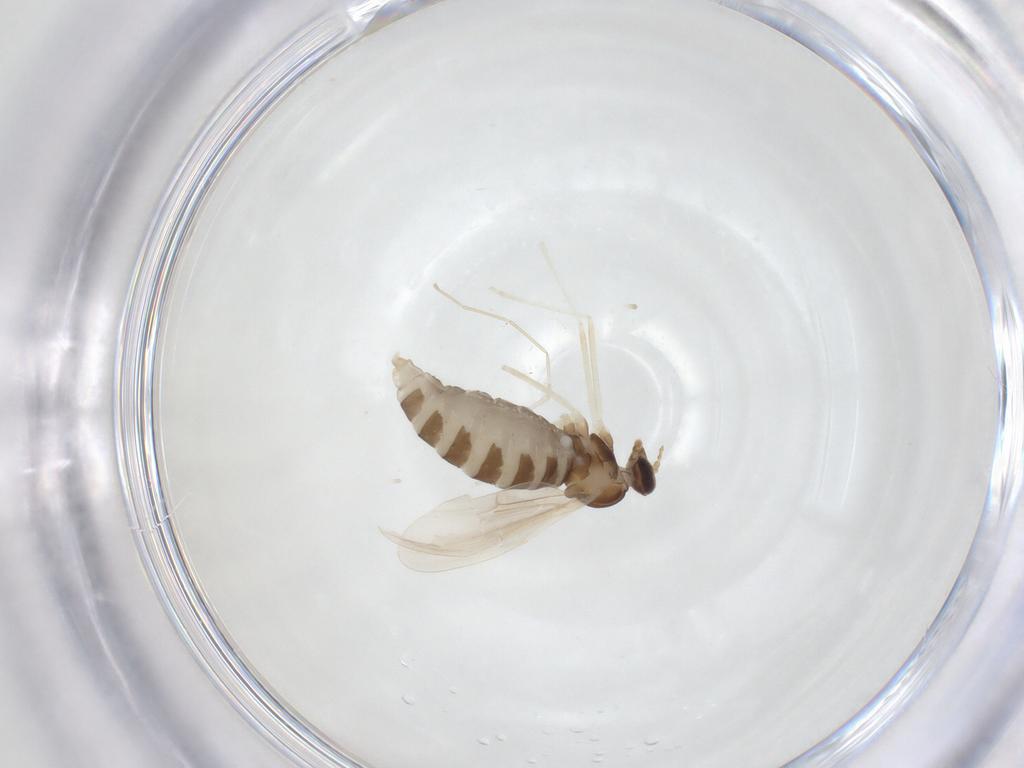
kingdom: Animalia
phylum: Arthropoda
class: Insecta
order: Diptera
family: Cecidomyiidae
